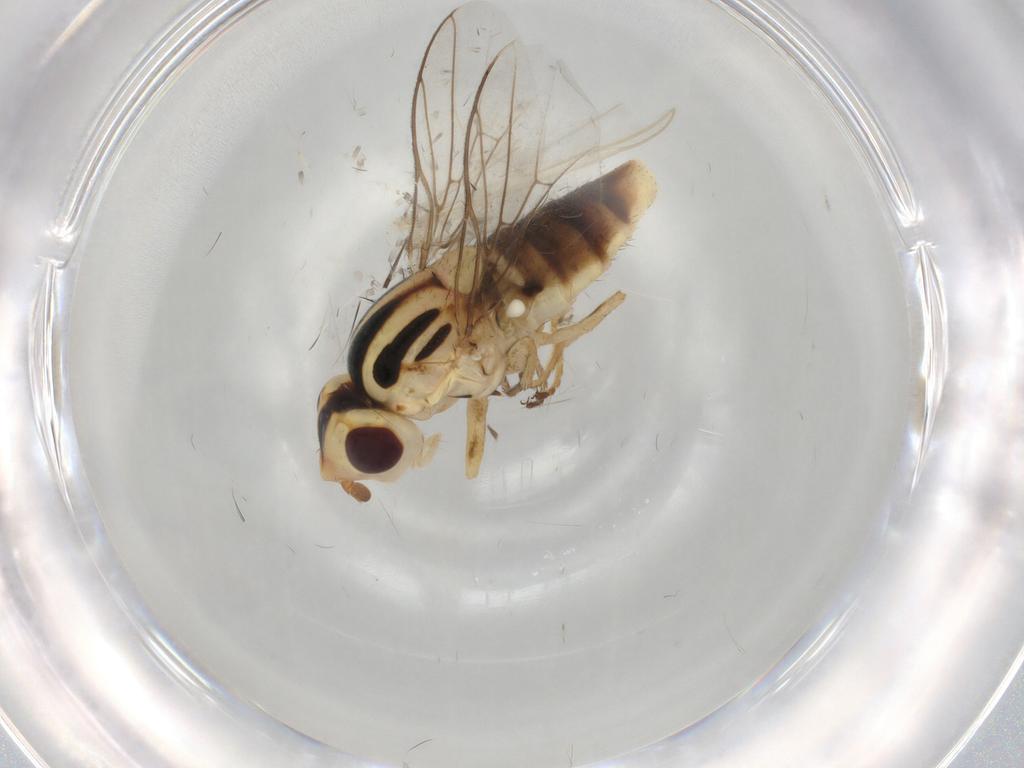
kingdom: Animalia
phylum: Arthropoda
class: Insecta
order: Diptera
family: Chloropidae
